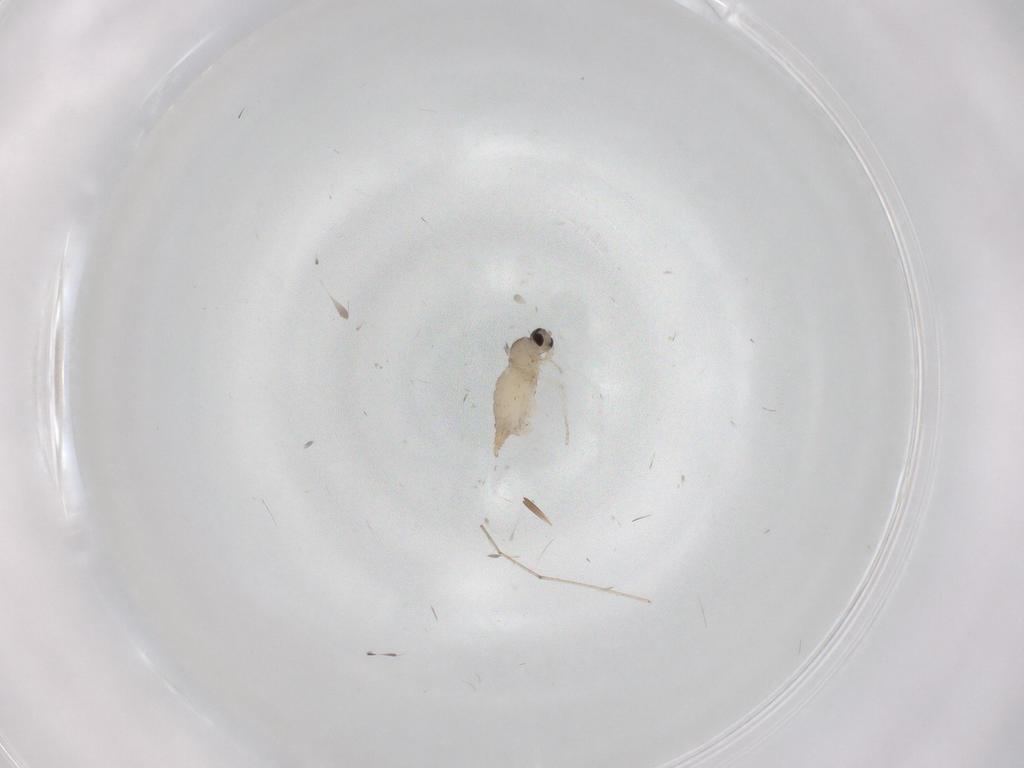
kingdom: Animalia
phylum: Arthropoda
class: Insecta
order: Diptera
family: Cecidomyiidae
